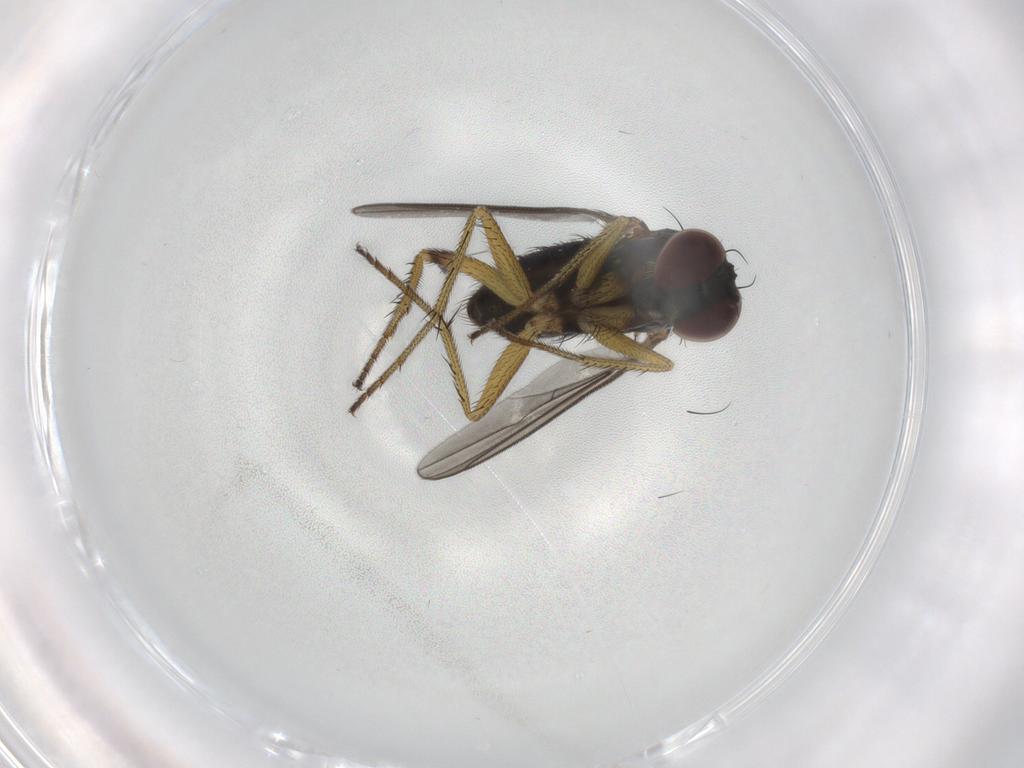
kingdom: Animalia
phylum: Arthropoda
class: Insecta
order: Diptera
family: Dolichopodidae
